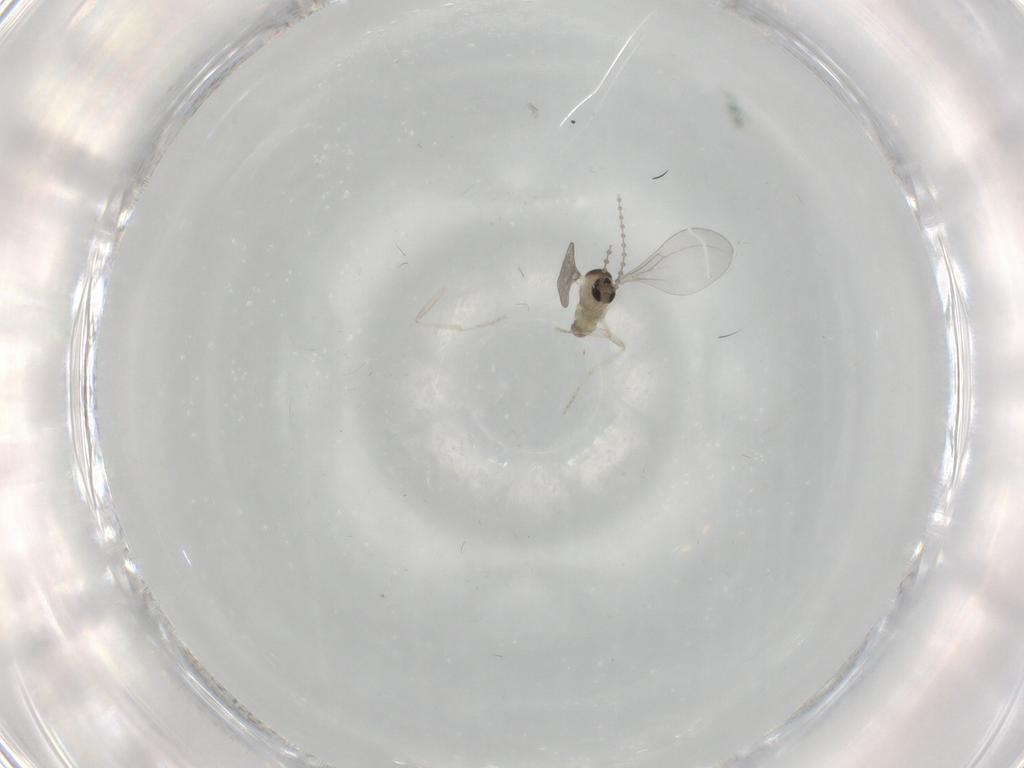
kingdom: Animalia
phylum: Arthropoda
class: Insecta
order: Diptera
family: Cecidomyiidae
